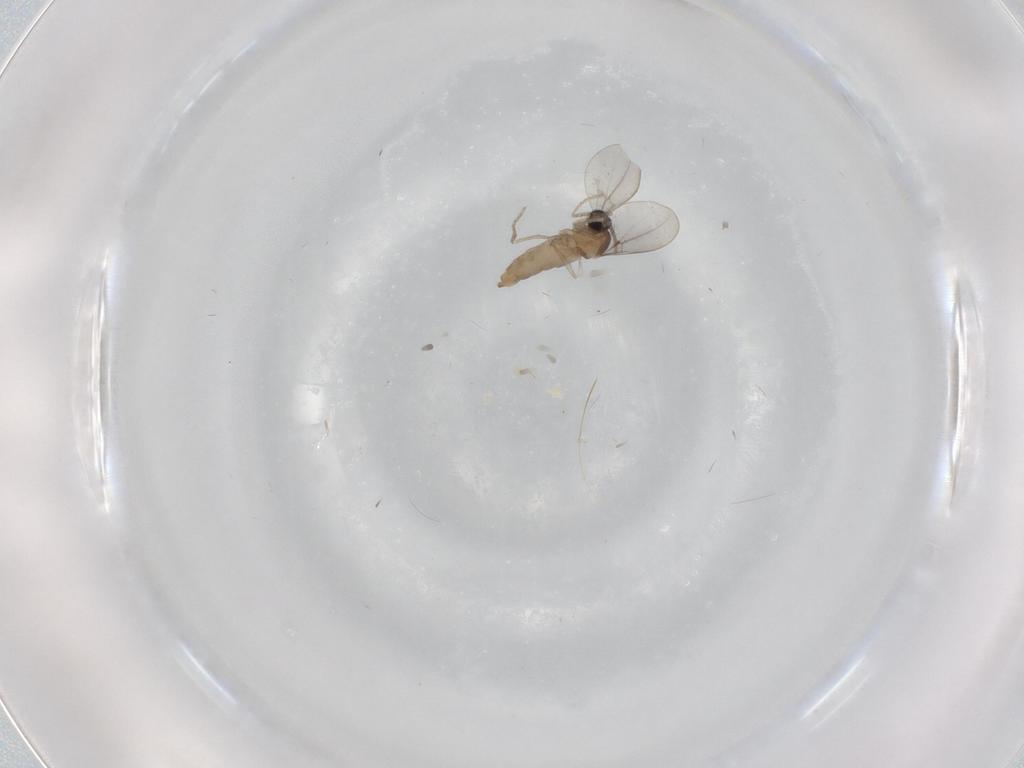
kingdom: Animalia
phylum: Arthropoda
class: Insecta
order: Diptera
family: Cecidomyiidae
